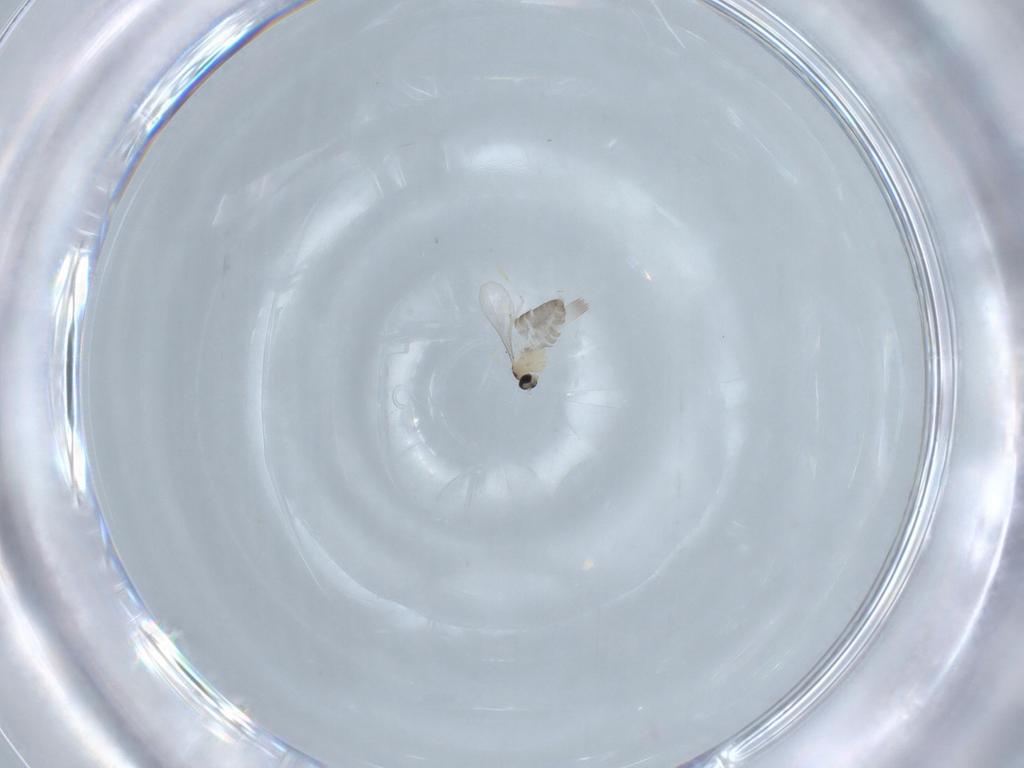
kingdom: Animalia
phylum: Arthropoda
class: Insecta
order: Diptera
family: Cecidomyiidae
